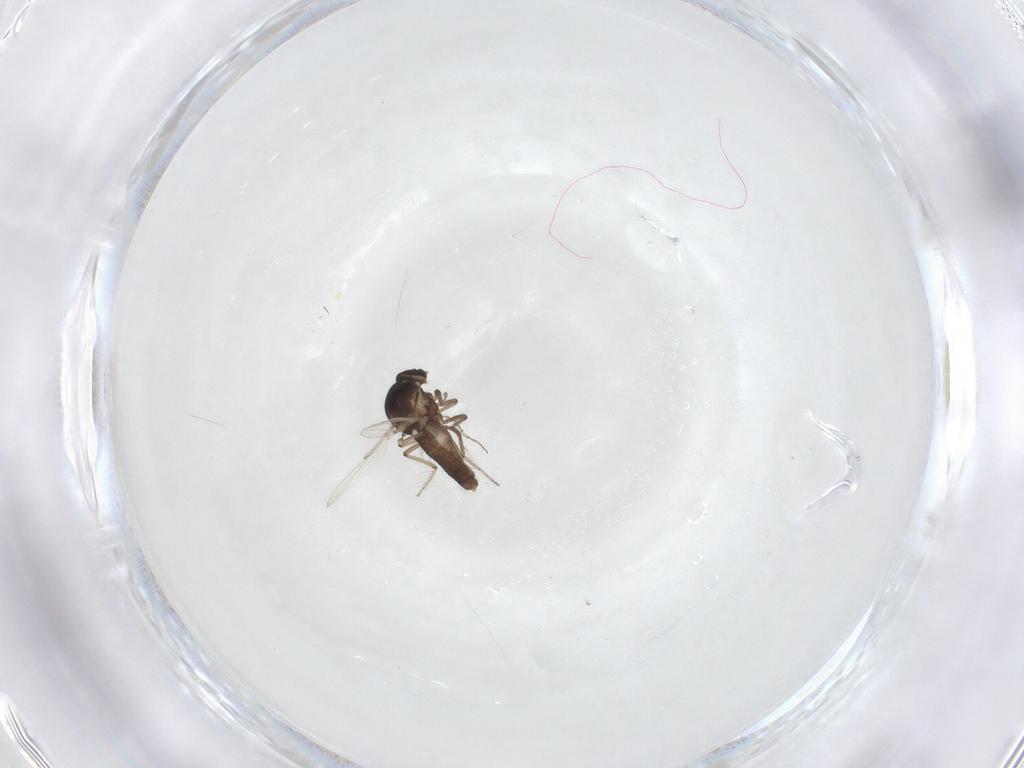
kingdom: Animalia
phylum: Arthropoda
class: Insecta
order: Diptera
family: Ceratopogonidae
